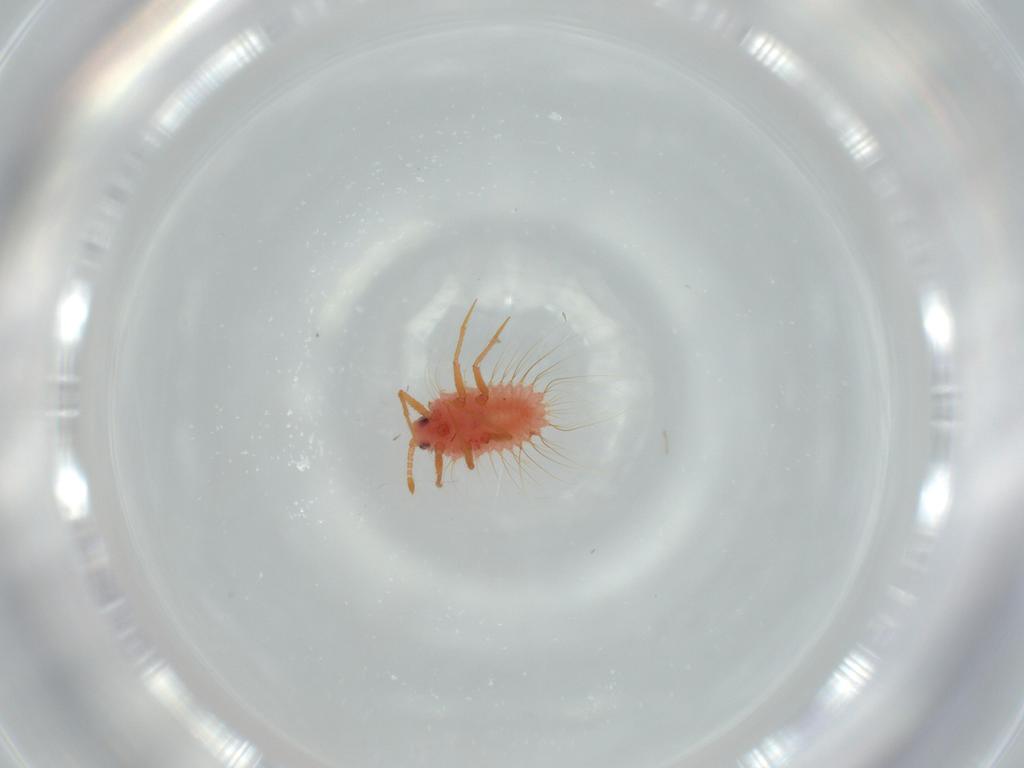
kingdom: Animalia
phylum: Arthropoda
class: Insecta
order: Hemiptera
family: Monophlebidae
